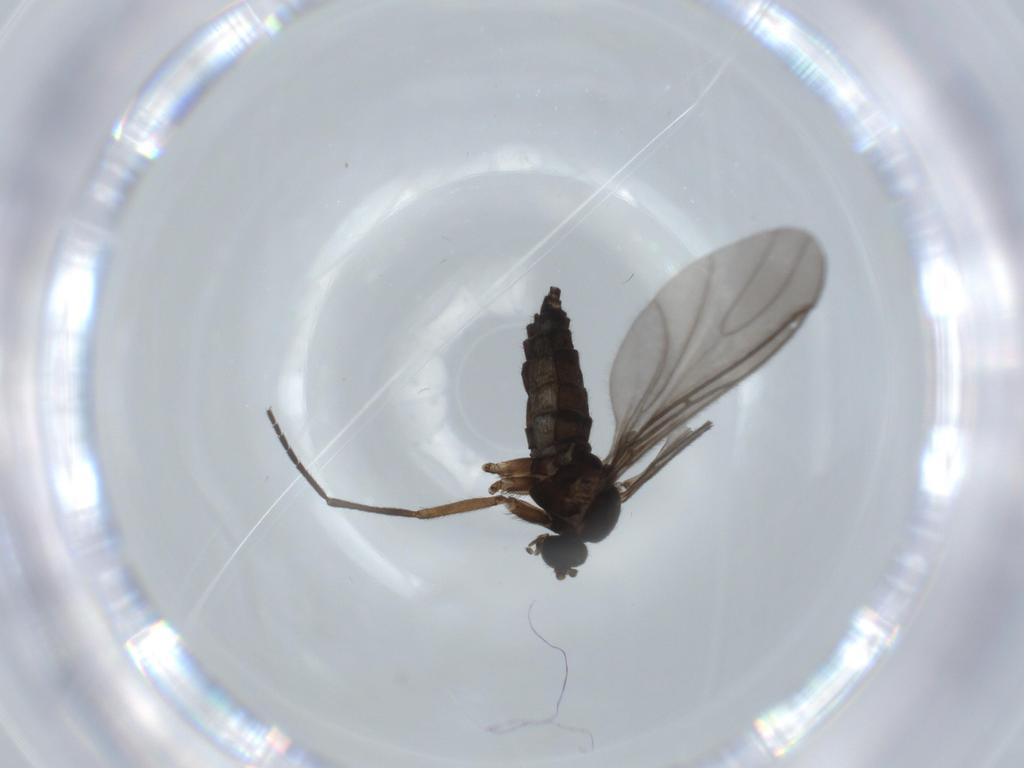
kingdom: Animalia
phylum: Arthropoda
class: Insecta
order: Diptera
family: Sciaridae
